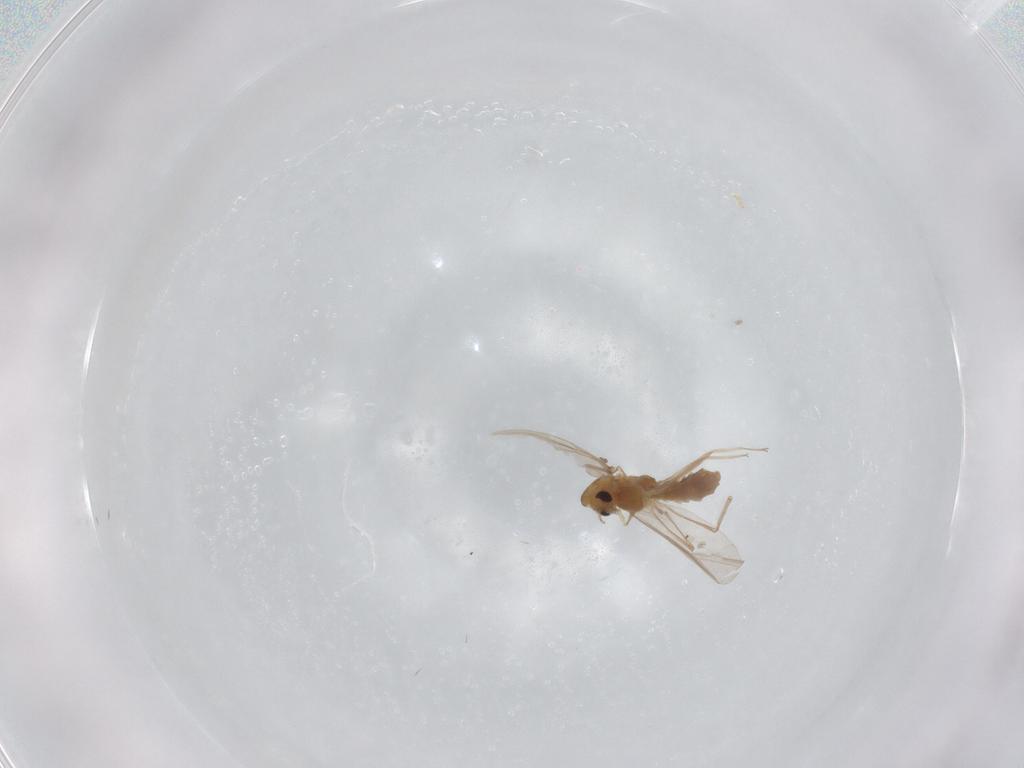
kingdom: Animalia
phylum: Arthropoda
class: Insecta
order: Diptera
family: Chironomidae
